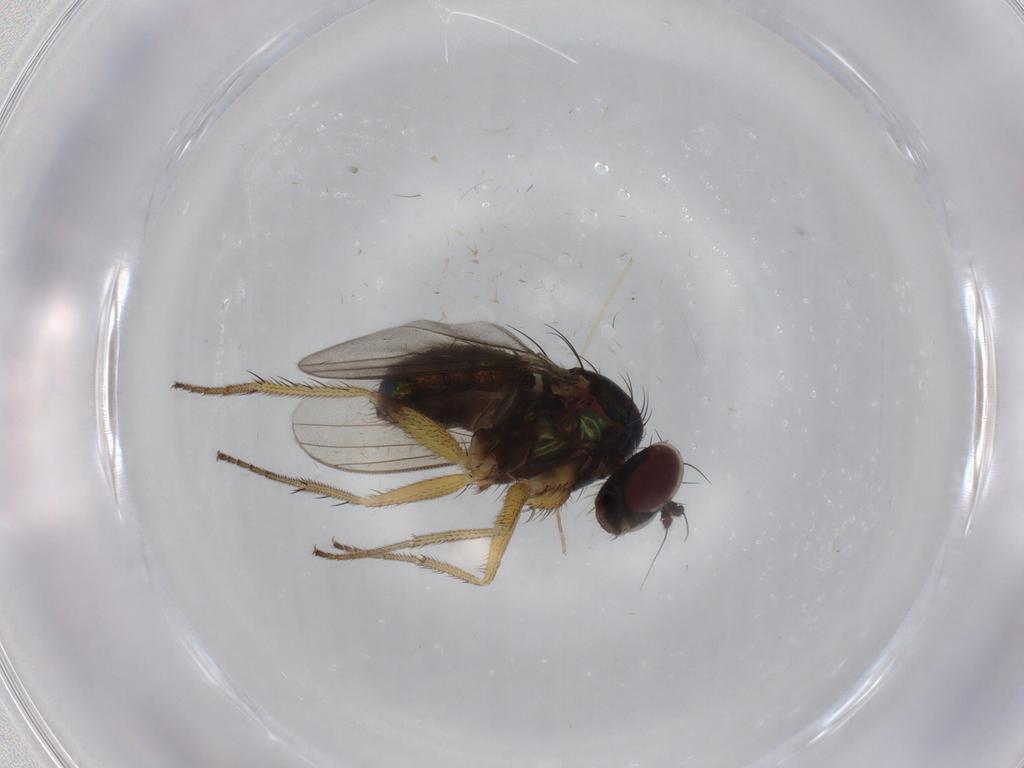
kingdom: Animalia
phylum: Arthropoda
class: Insecta
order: Diptera
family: Dolichopodidae
